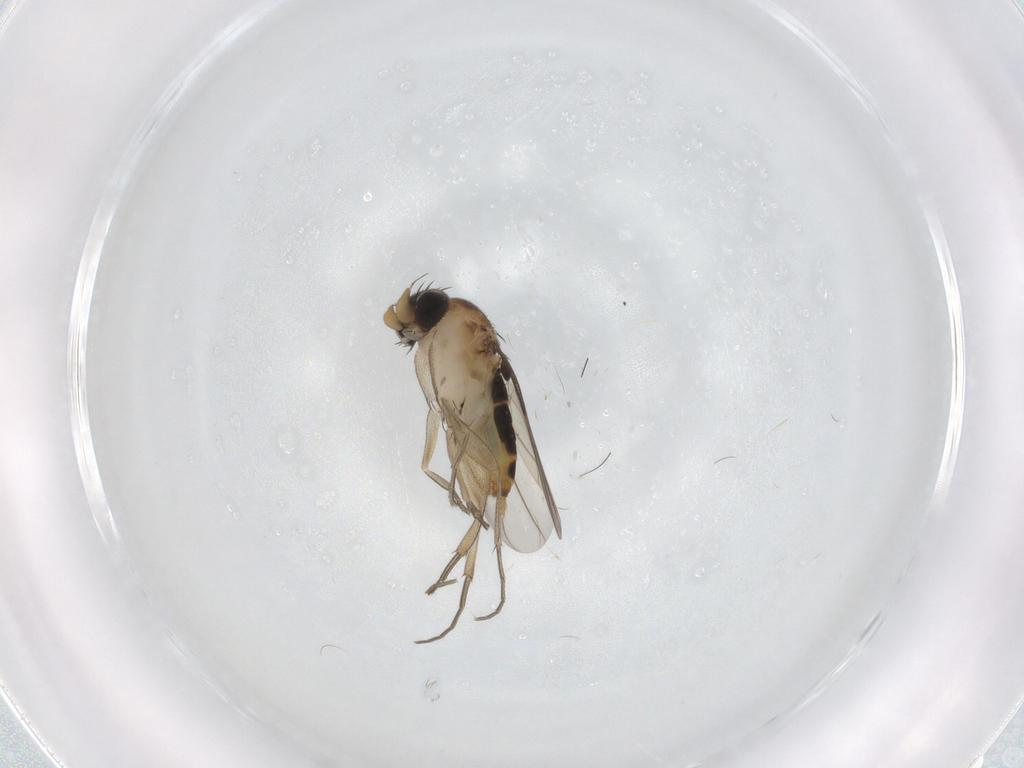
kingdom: Animalia
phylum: Arthropoda
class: Insecta
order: Diptera
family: Phoridae
